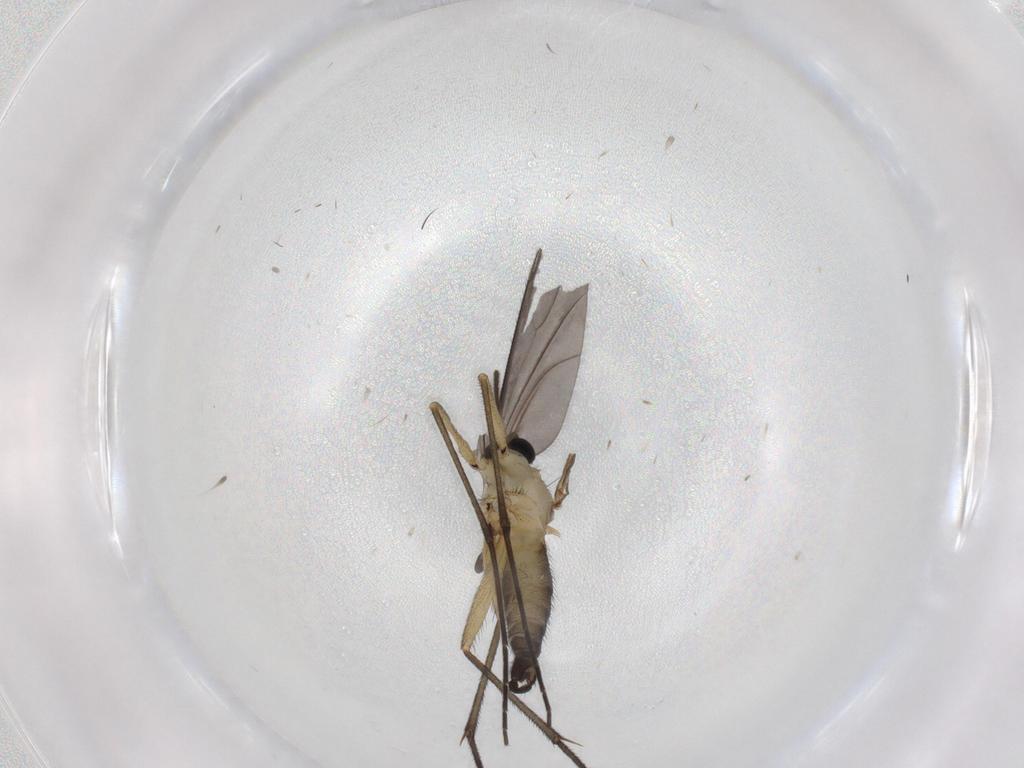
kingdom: Animalia
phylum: Arthropoda
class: Insecta
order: Diptera
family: Sciaridae
